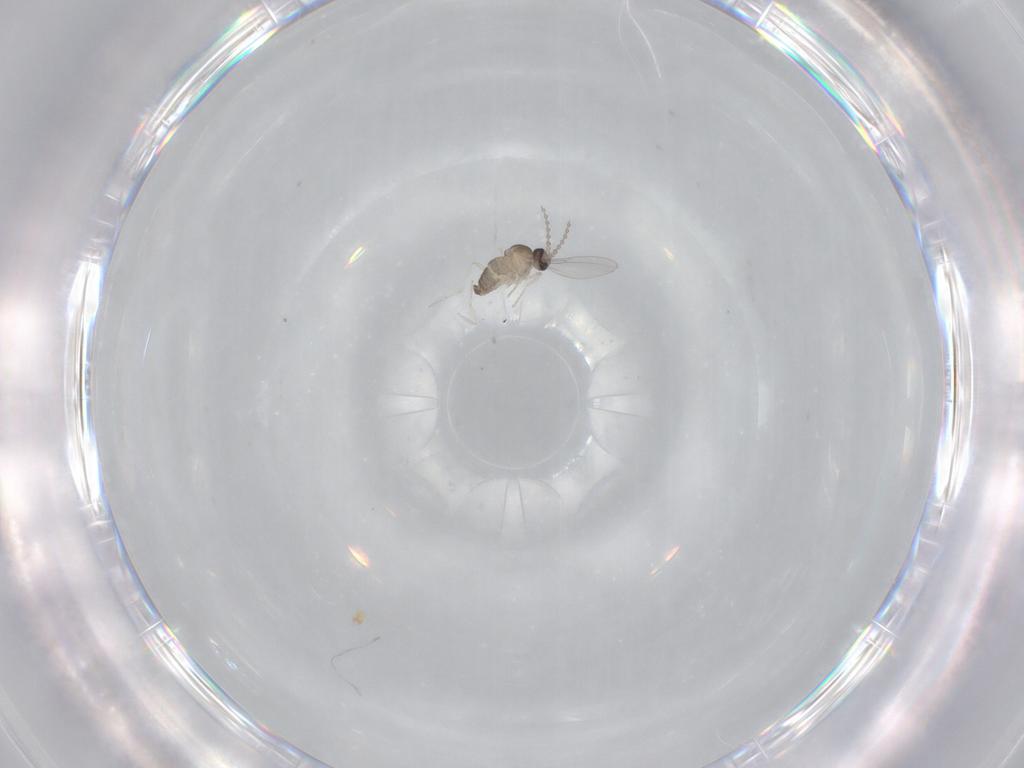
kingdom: Animalia
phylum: Arthropoda
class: Insecta
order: Diptera
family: Cecidomyiidae
